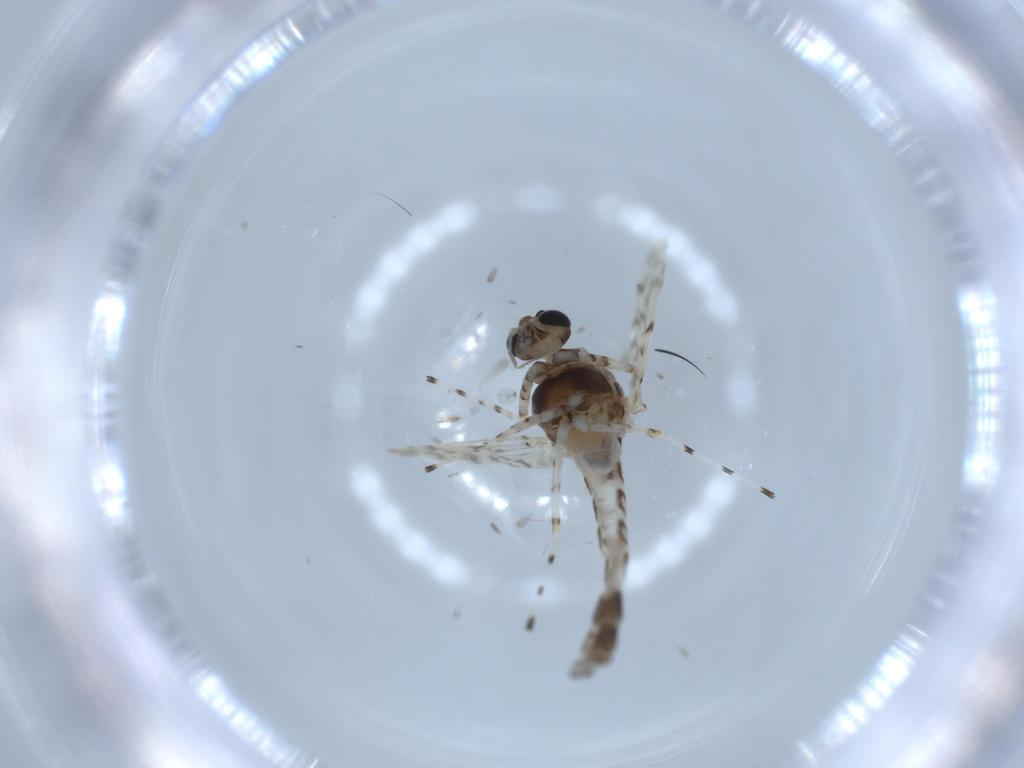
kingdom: Animalia
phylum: Arthropoda
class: Insecta
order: Diptera
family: Chironomidae
